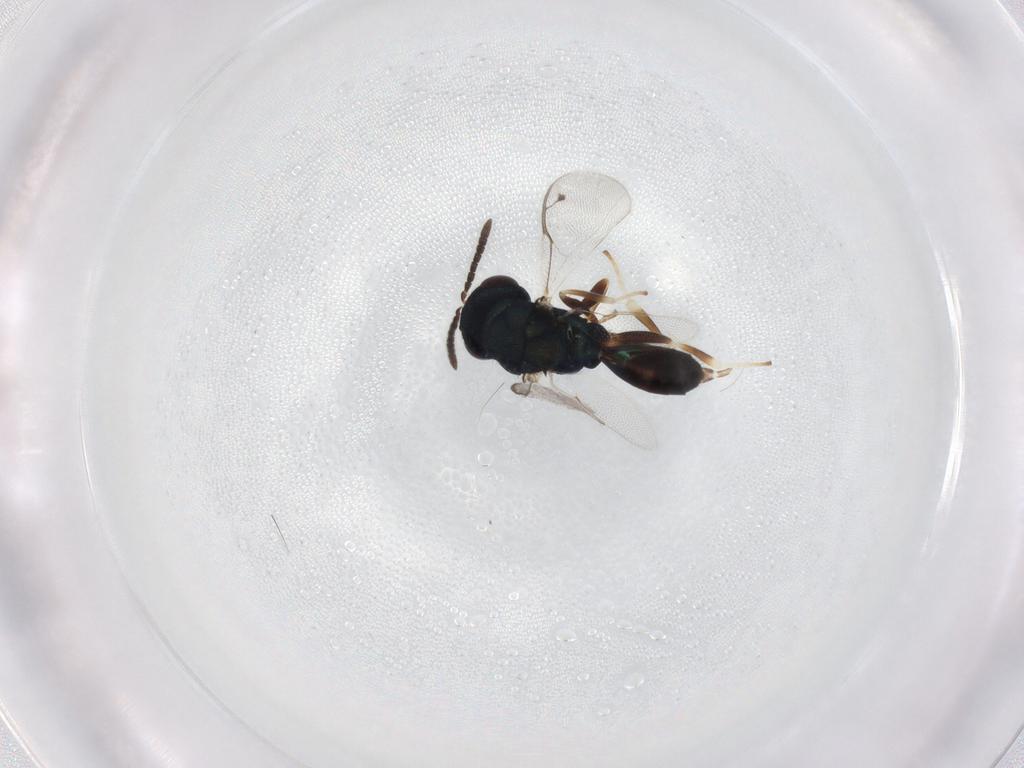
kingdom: Animalia
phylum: Arthropoda
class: Insecta
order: Hymenoptera
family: Pteromalidae
